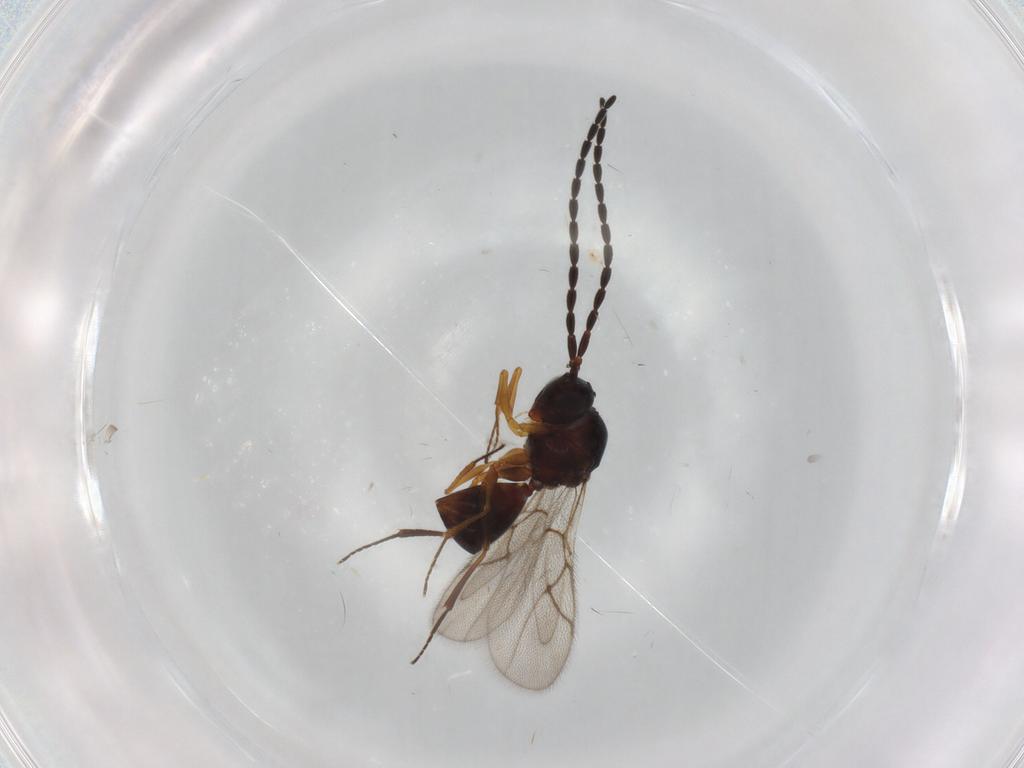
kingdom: Animalia
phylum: Arthropoda
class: Insecta
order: Hymenoptera
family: Figitidae
